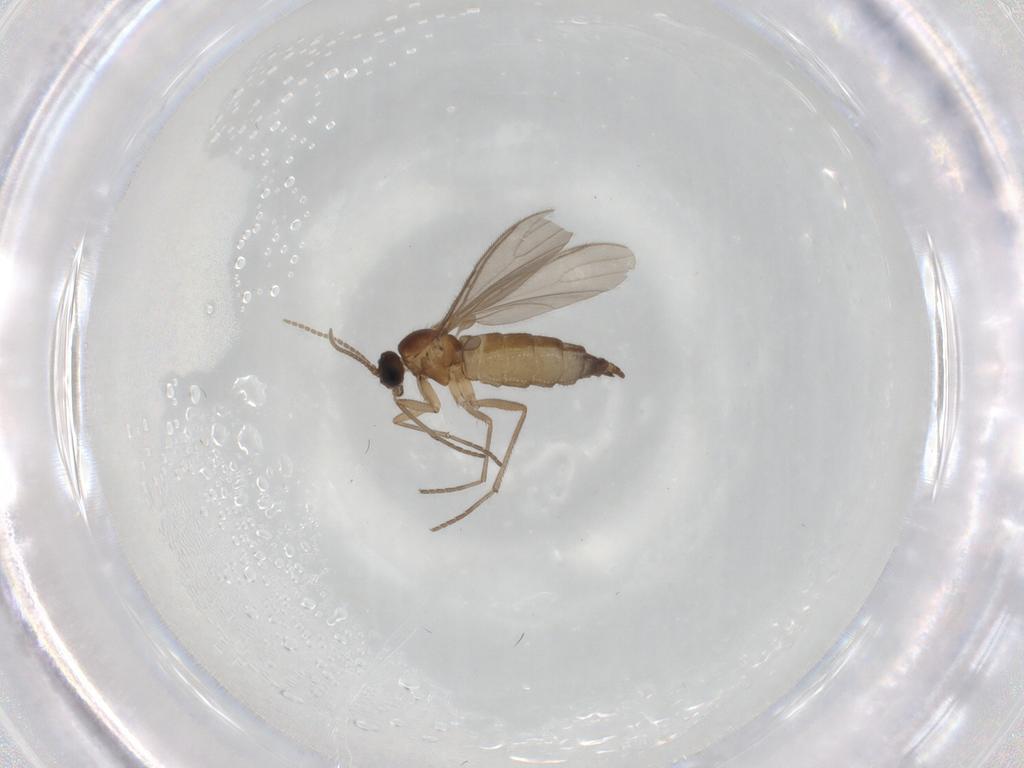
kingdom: Animalia
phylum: Arthropoda
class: Insecta
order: Diptera
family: Sciaridae
